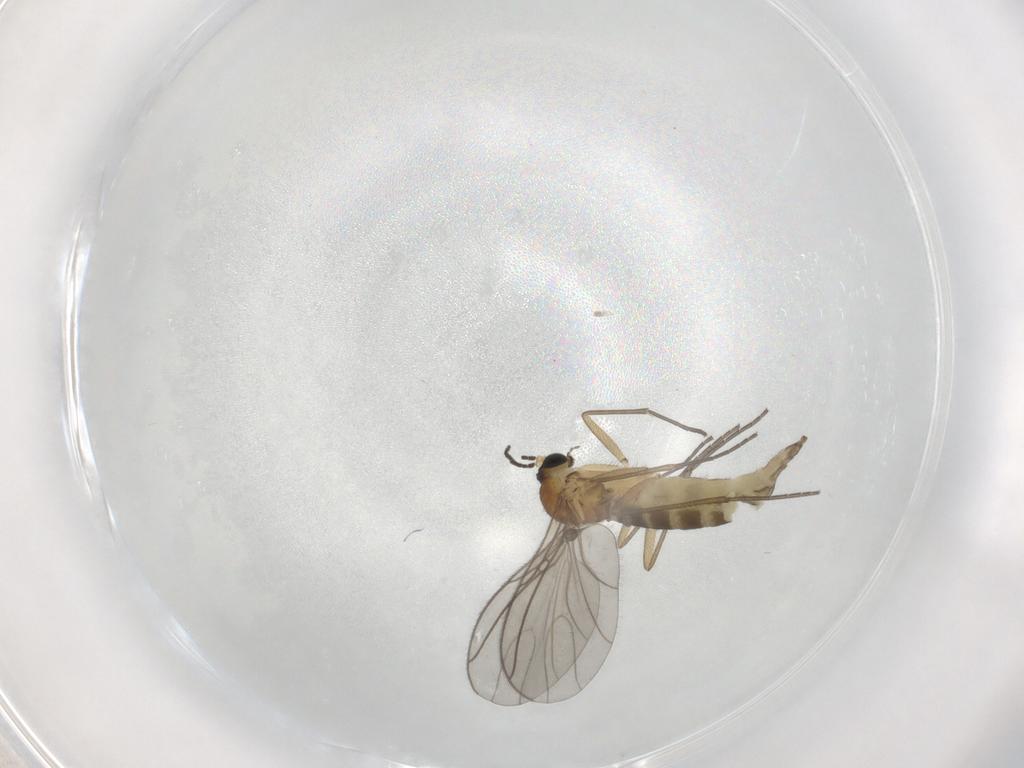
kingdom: Animalia
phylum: Arthropoda
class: Insecta
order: Diptera
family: Sciaridae
